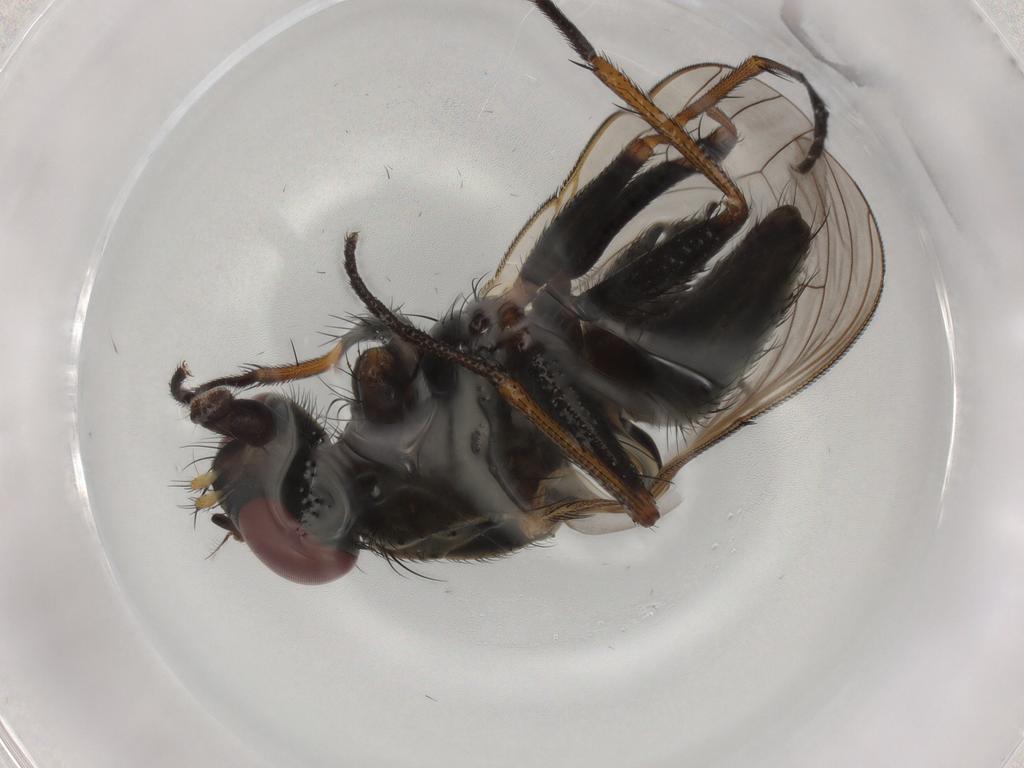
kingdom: Animalia
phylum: Arthropoda
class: Insecta
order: Diptera
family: Muscidae
